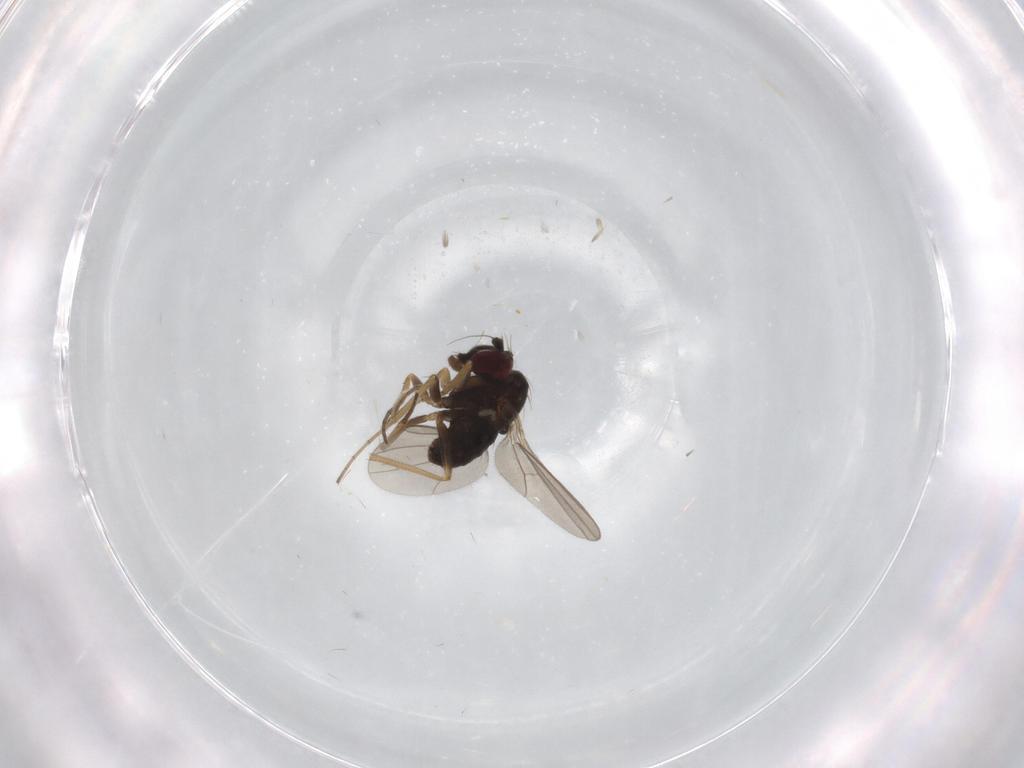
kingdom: Animalia
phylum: Arthropoda
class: Insecta
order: Diptera
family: Dolichopodidae
